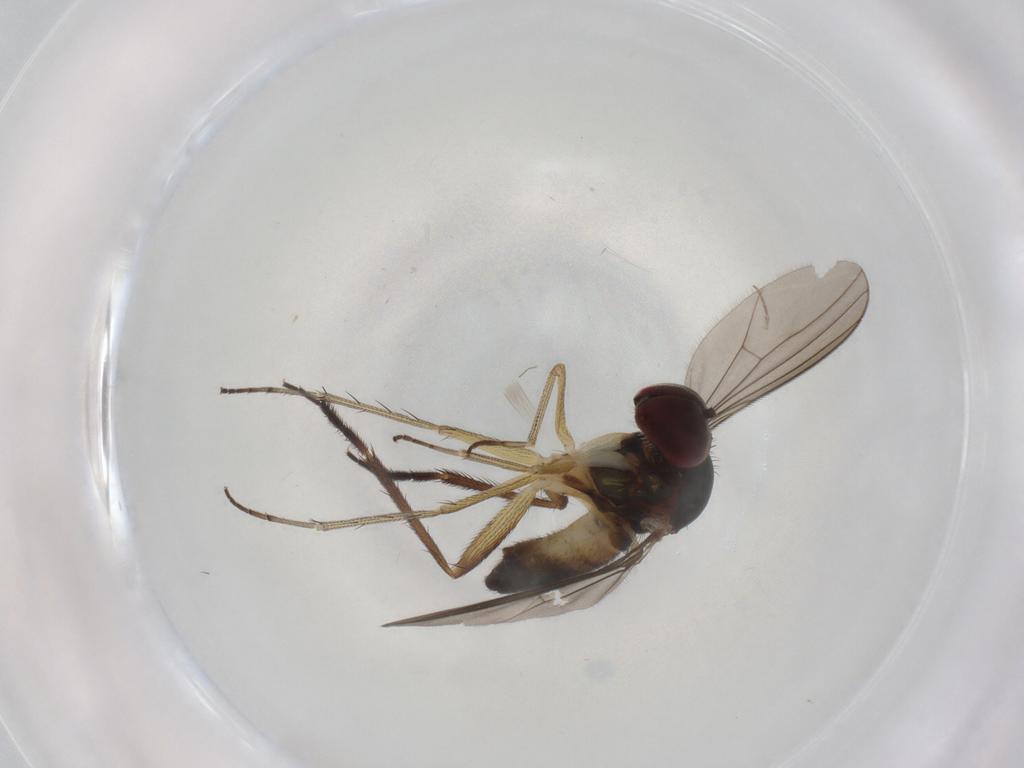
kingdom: Animalia
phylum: Arthropoda
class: Insecta
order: Diptera
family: Dolichopodidae
